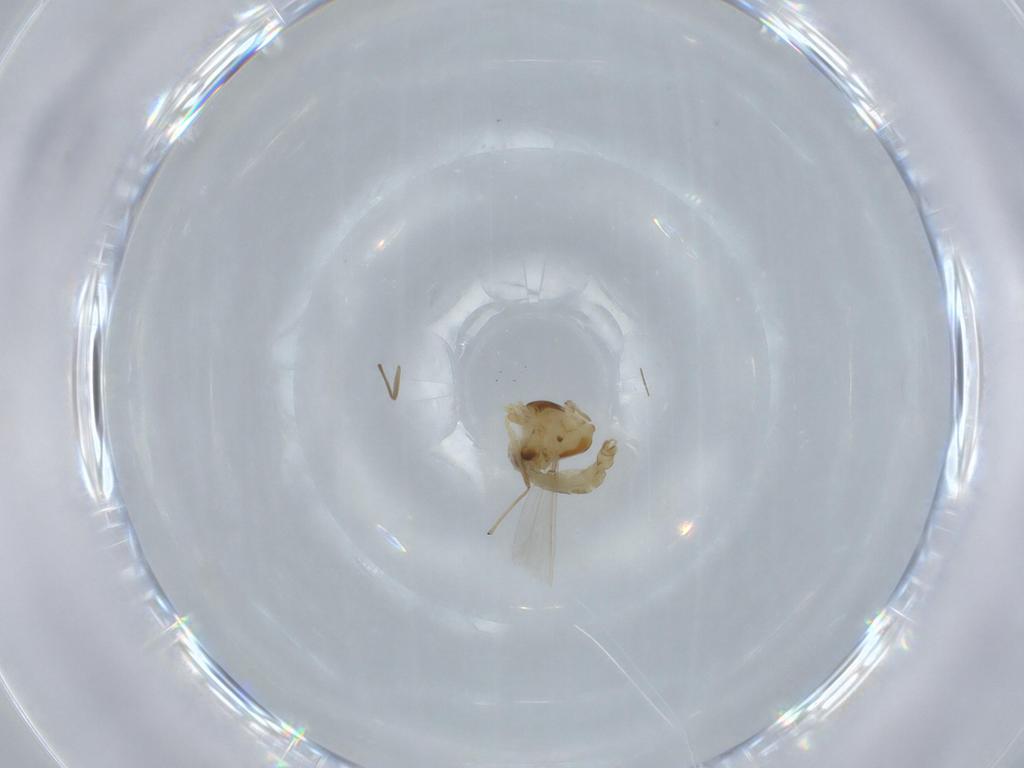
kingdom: Animalia
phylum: Arthropoda
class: Insecta
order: Diptera
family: Chironomidae
